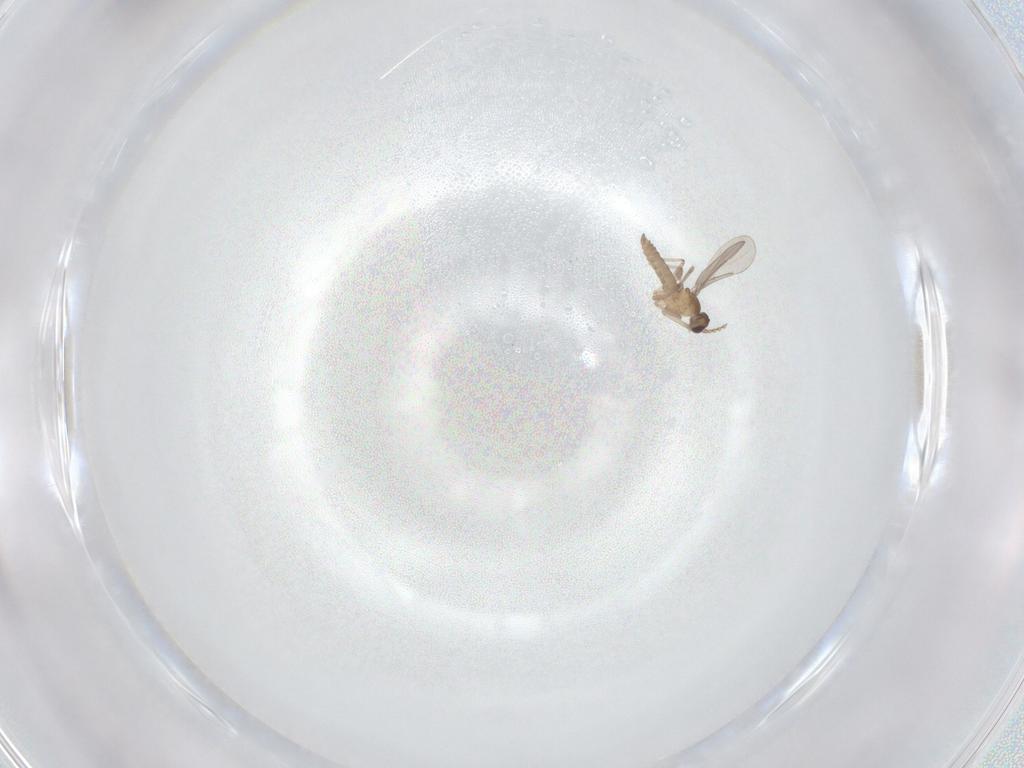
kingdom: Animalia
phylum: Arthropoda
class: Insecta
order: Diptera
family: Cecidomyiidae
